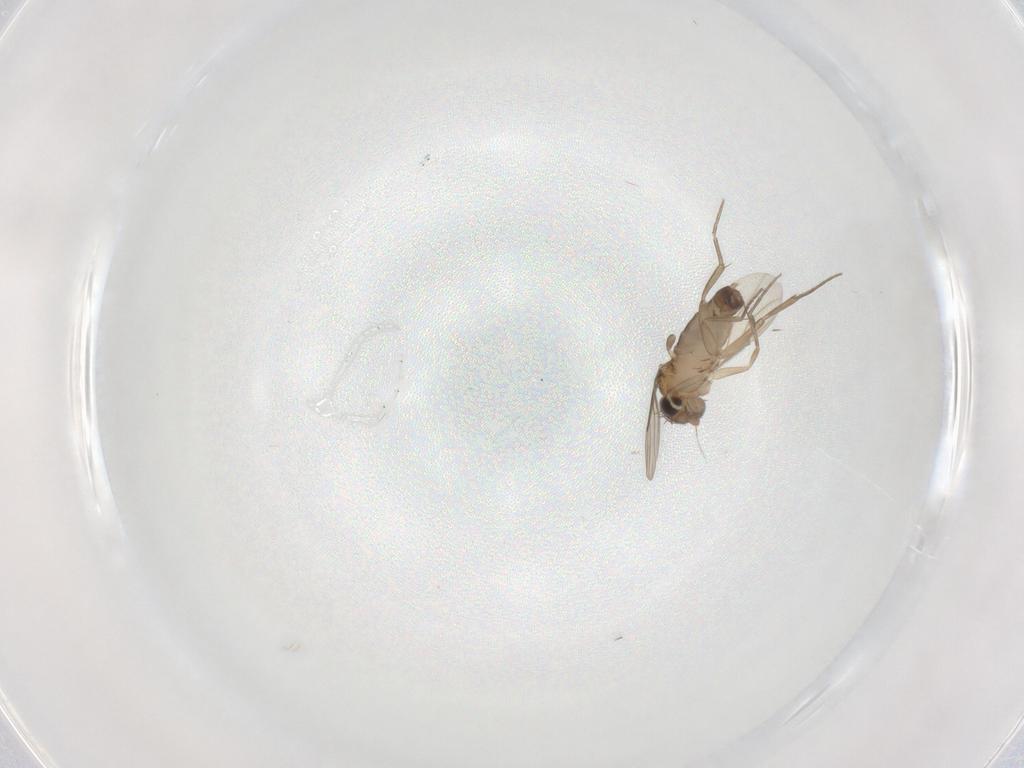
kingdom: Animalia
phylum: Arthropoda
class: Insecta
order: Diptera
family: Phoridae
